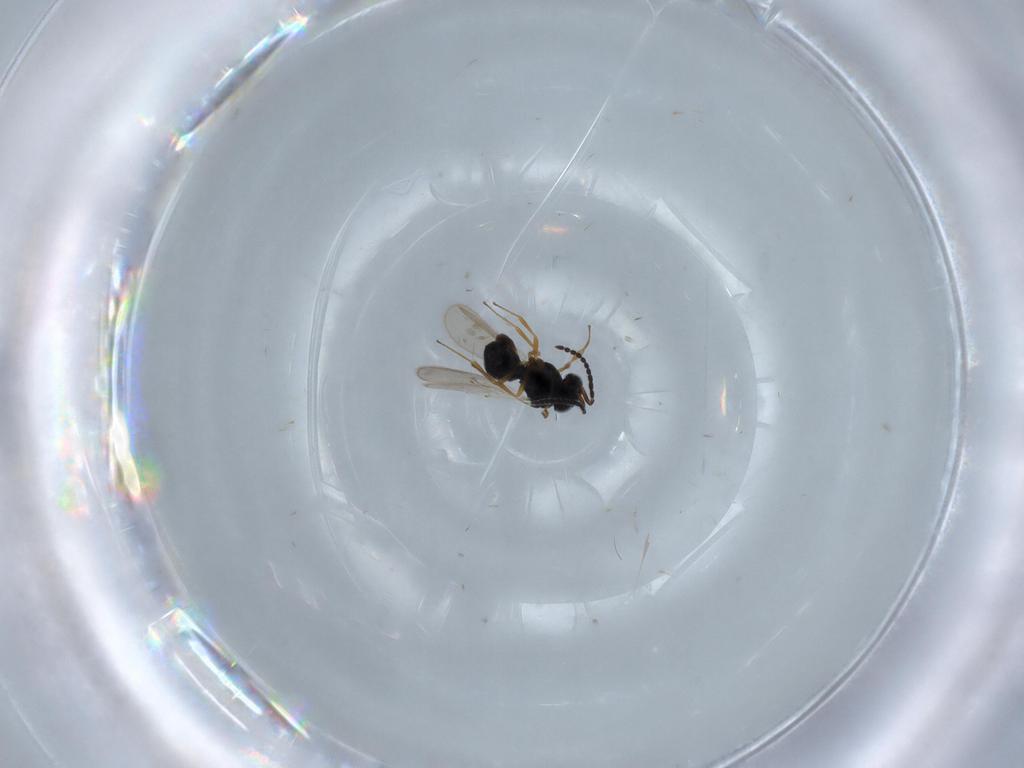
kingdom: Animalia
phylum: Arthropoda
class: Insecta
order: Hymenoptera
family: Scelionidae
